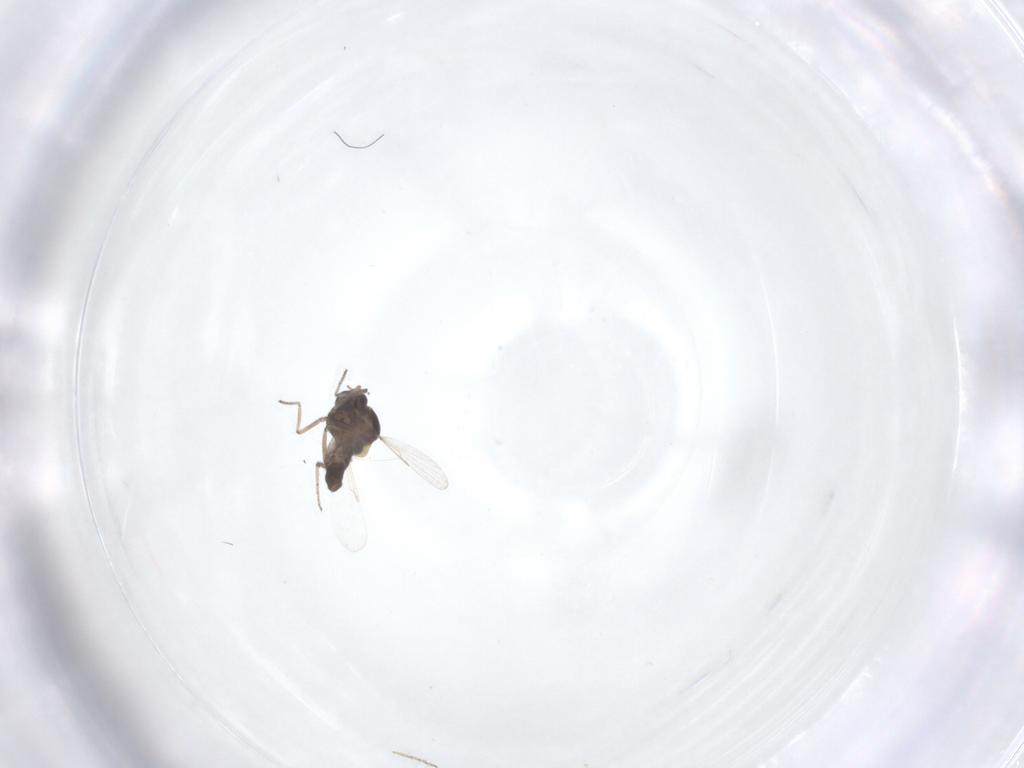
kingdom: Animalia
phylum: Arthropoda
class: Insecta
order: Diptera
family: Ceratopogonidae
